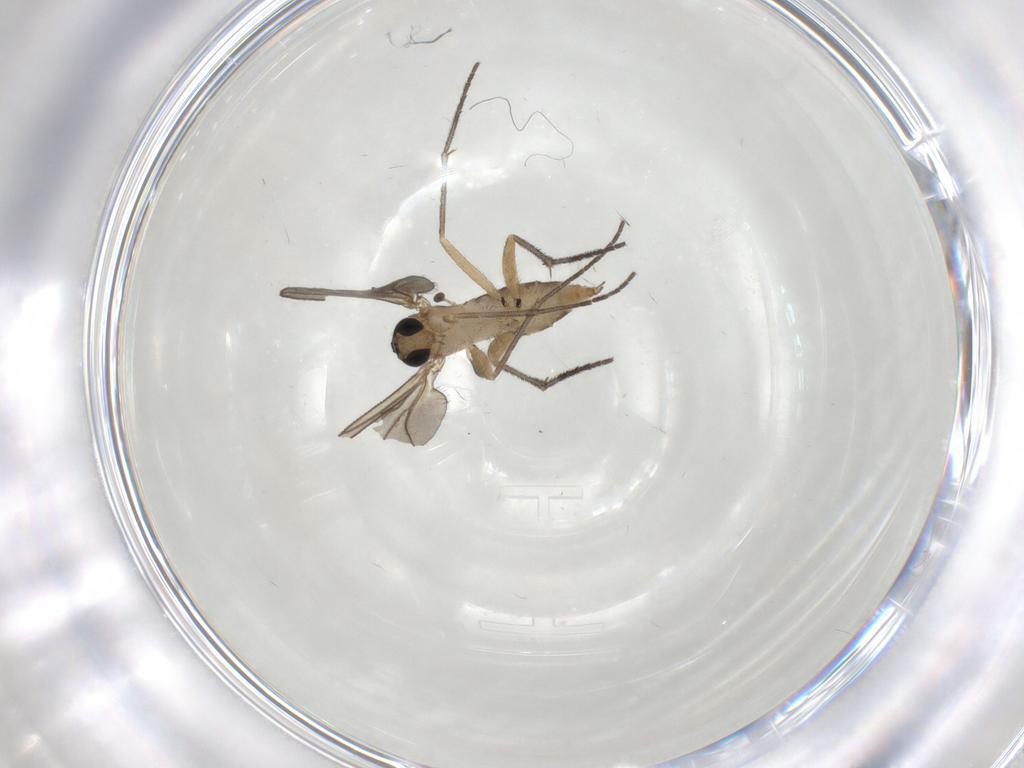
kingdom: Animalia
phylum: Arthropoda
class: Insecta
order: Diptera
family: Sciaridae
